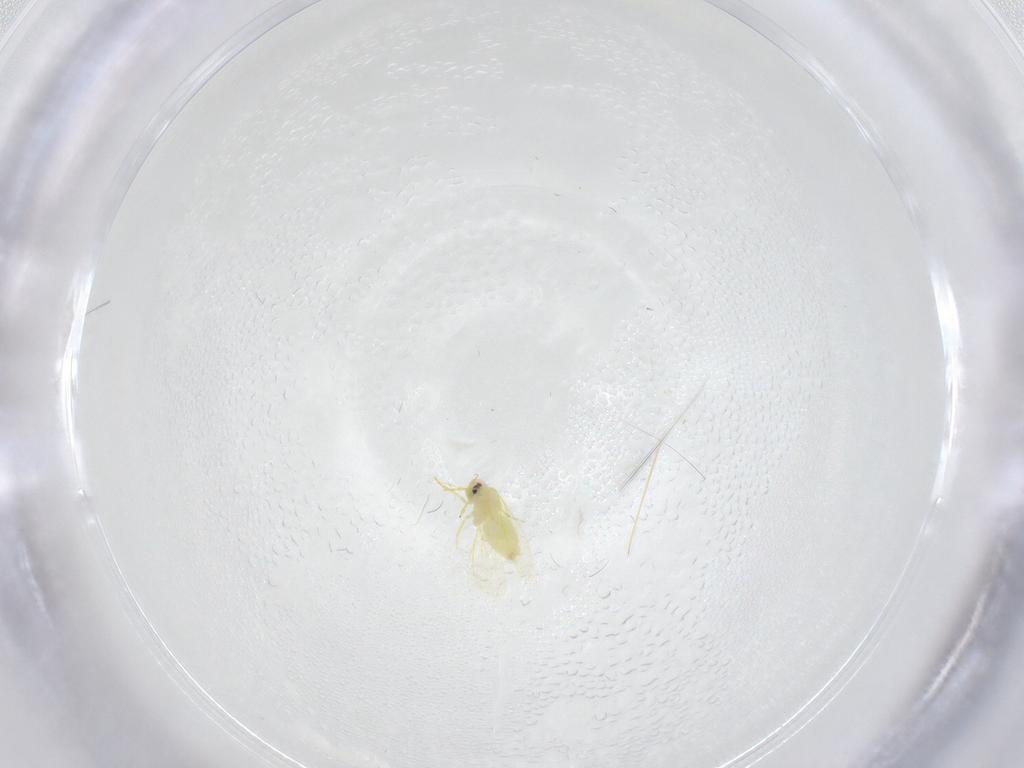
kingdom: Animalia
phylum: Arthropoda
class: Insecta
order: Hemiptera
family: Aleyrodidae
